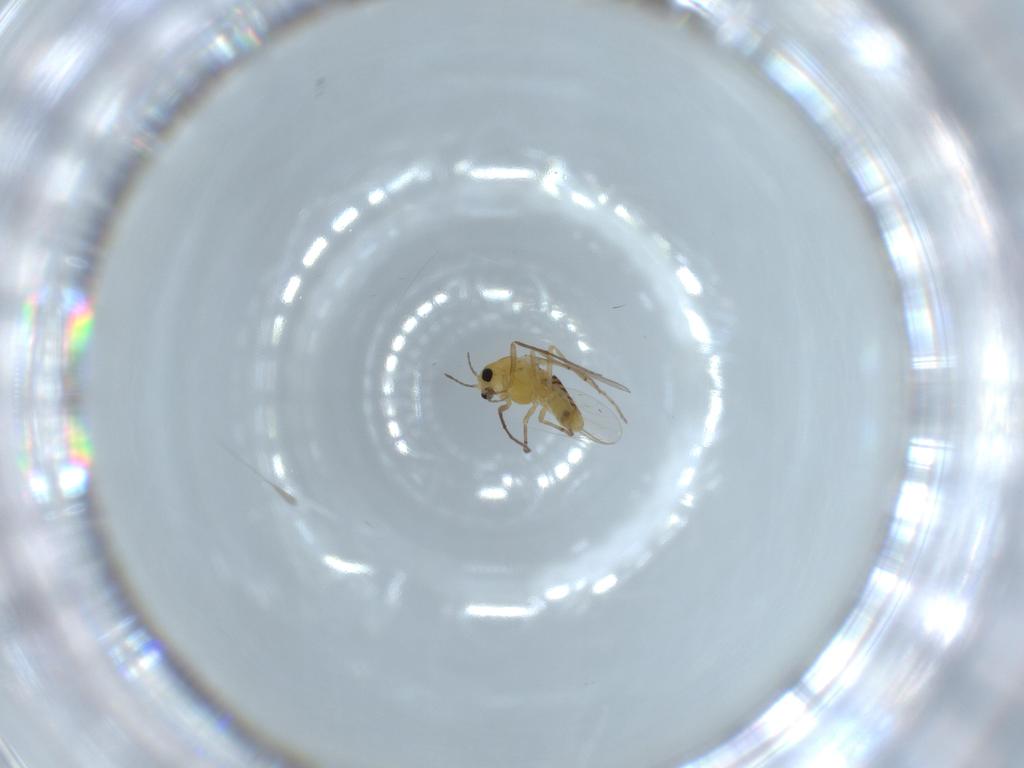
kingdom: Animalia
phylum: Arthropoda
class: Insecta
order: Diptera
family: Chironomidae
